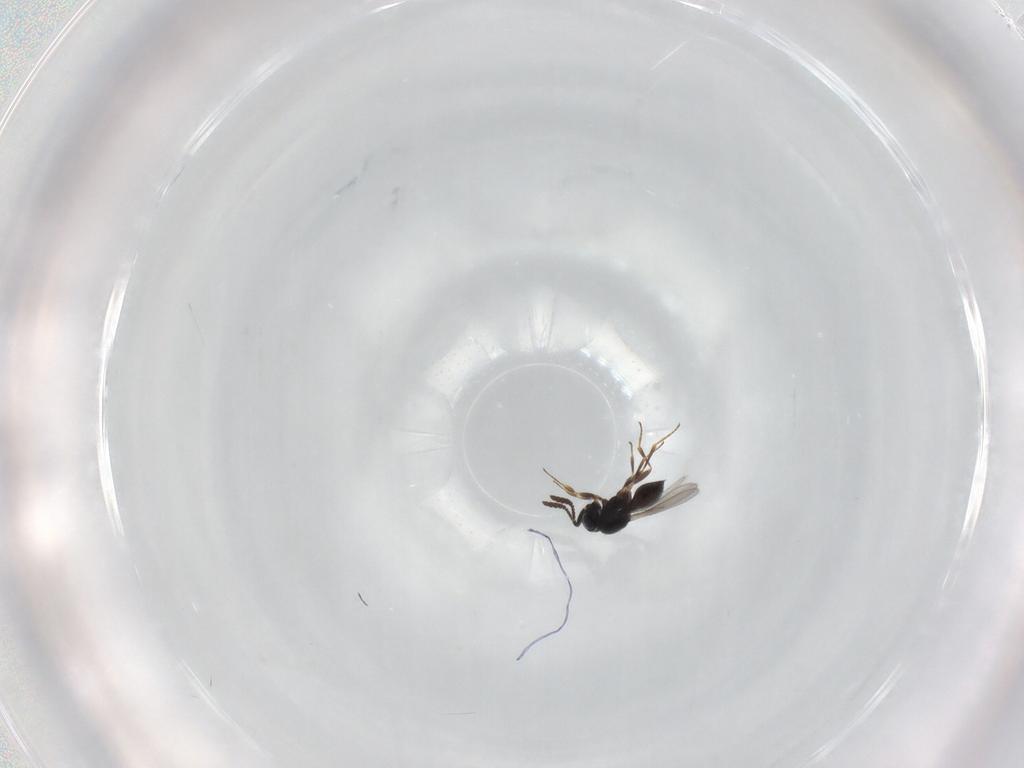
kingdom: Animalia
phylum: Arthropoda
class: Insecta
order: Hymenoptera
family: Scelionidae
